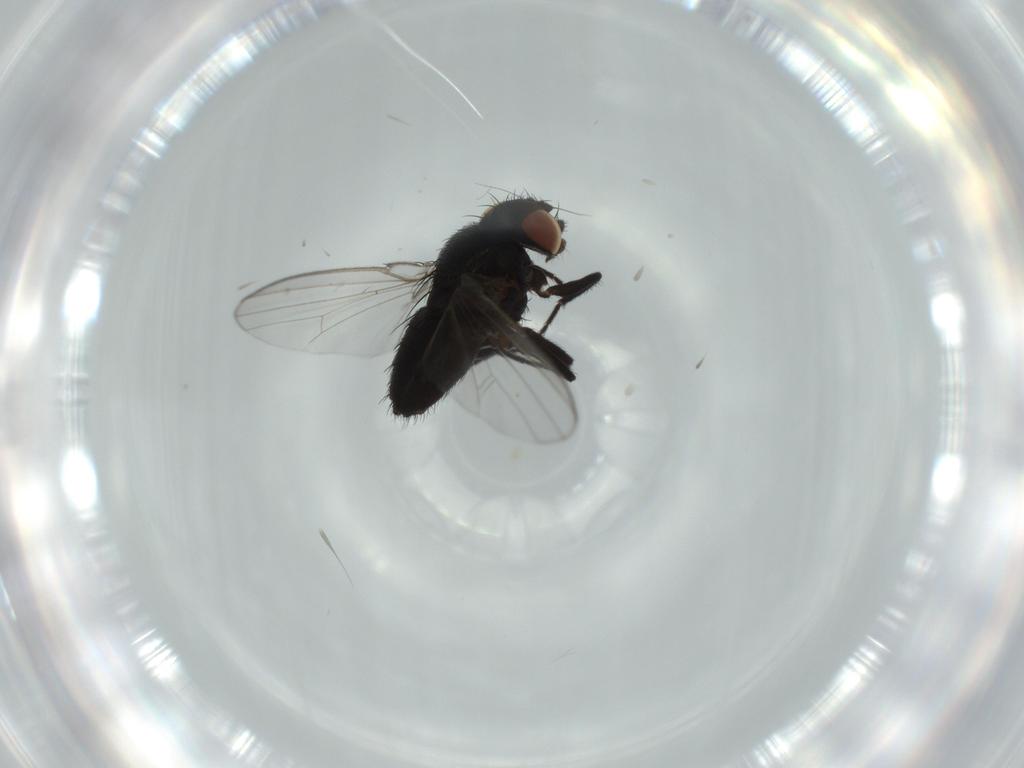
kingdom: Animalia
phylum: Arthropoda
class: Insecta
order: Diptera
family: Milichiidae
